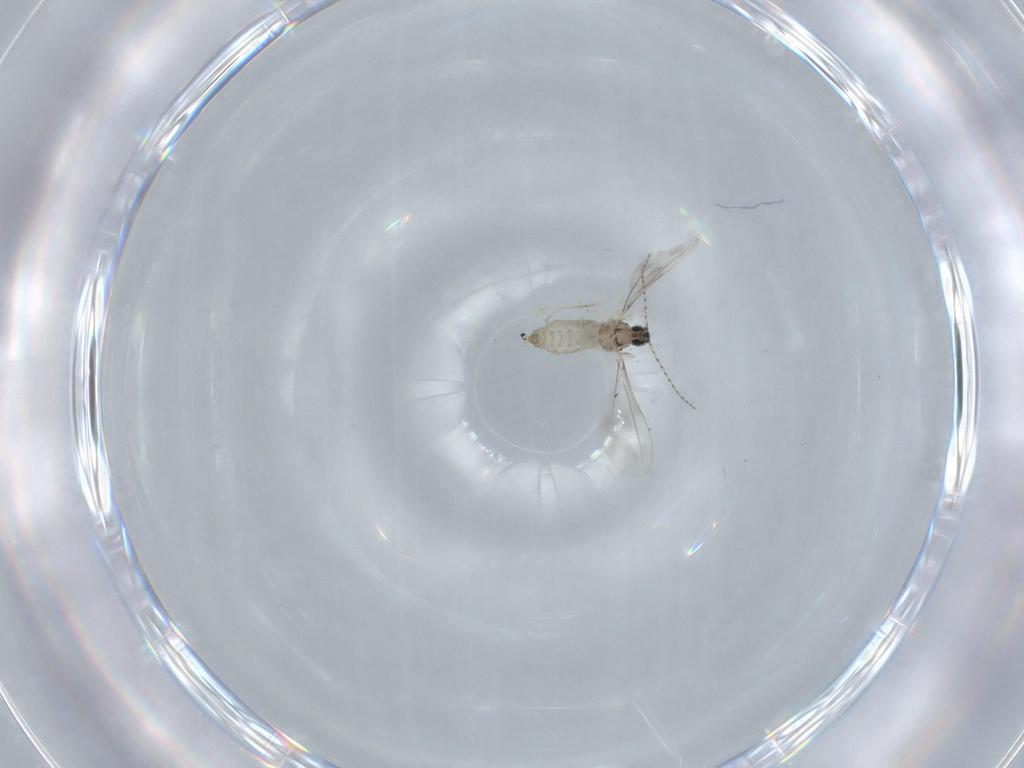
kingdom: Animalia
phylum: Arthropoda
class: Insecta
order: Diptera
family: Cecidomyiidae
